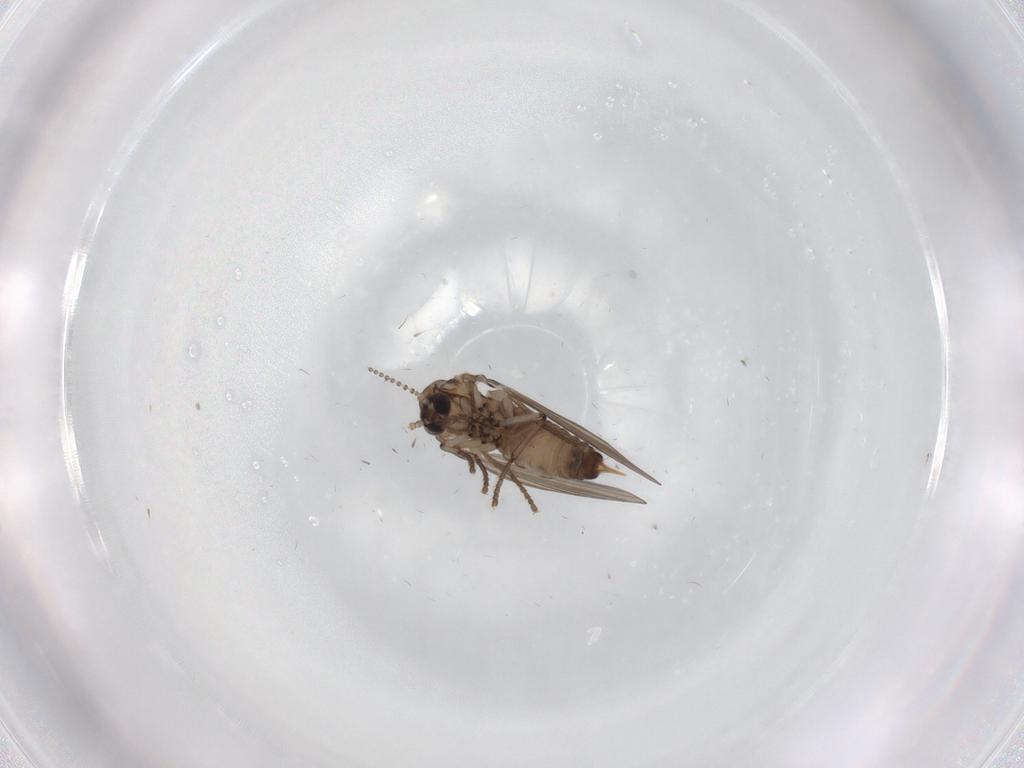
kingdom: Animalia
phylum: Arthropoda
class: Insecta
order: Diptera
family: Psychodidae
